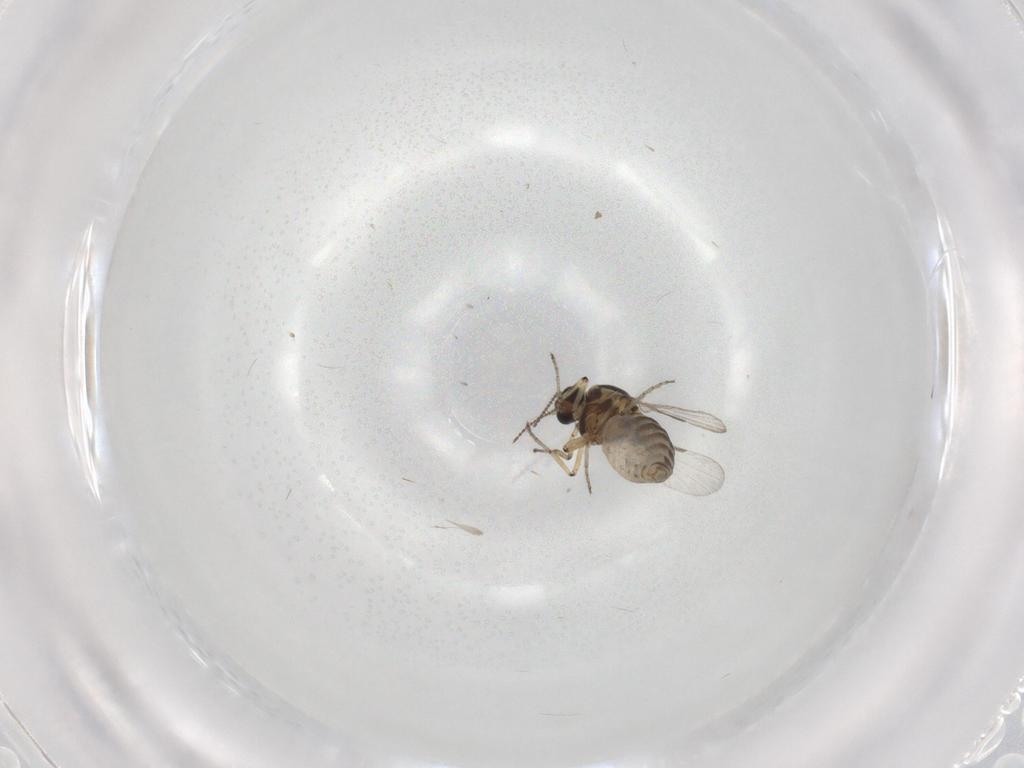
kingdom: Animalia
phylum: Arthropoda
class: Insecta
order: Diptera
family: Chironomidae
